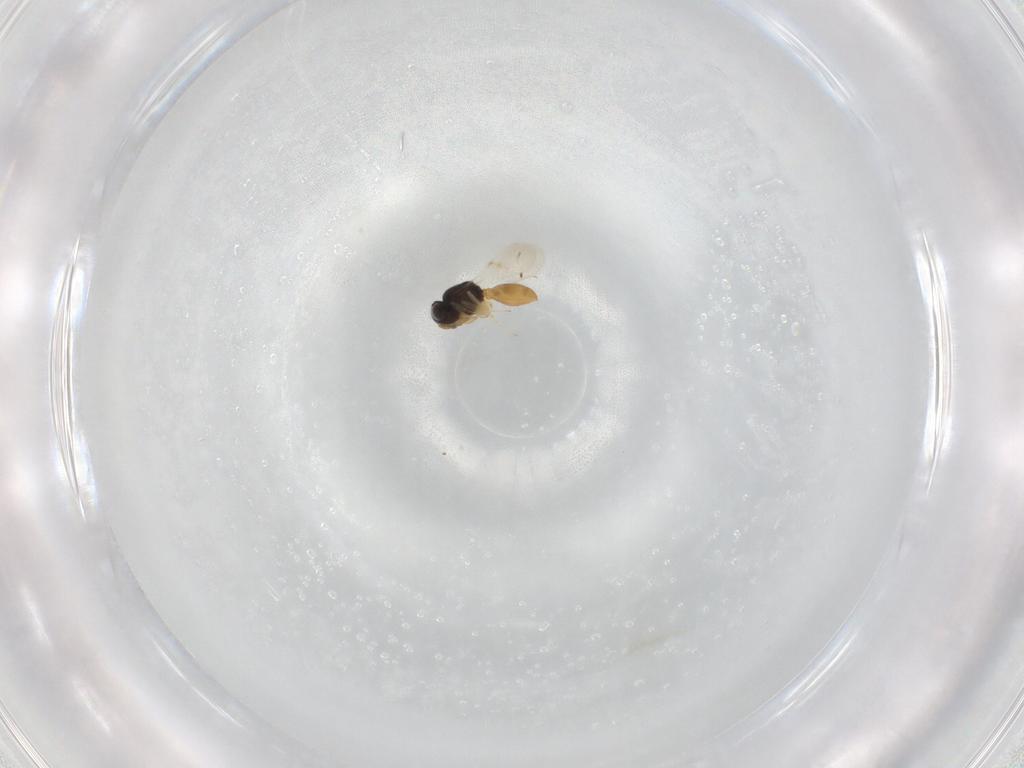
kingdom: Animalia
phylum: Arthropoda
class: Insecta
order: Hymenoptera
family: Scelionidae
